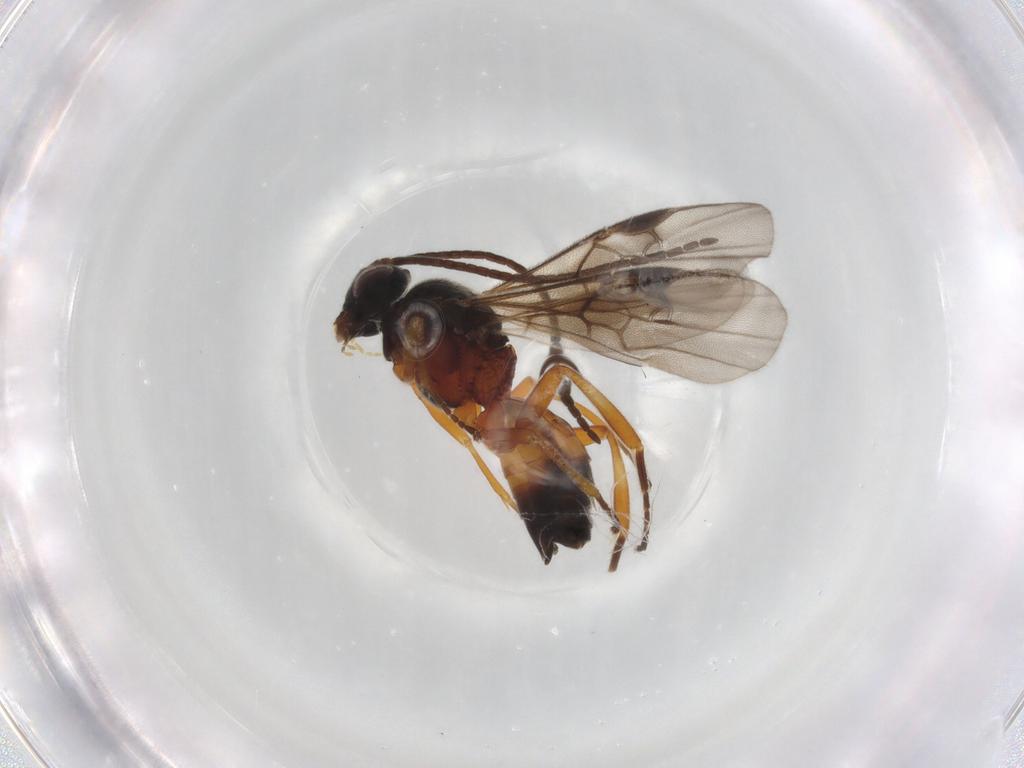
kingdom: Animalia
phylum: Arthropoda
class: Insecta
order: Hymenoptera
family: Braconidae
